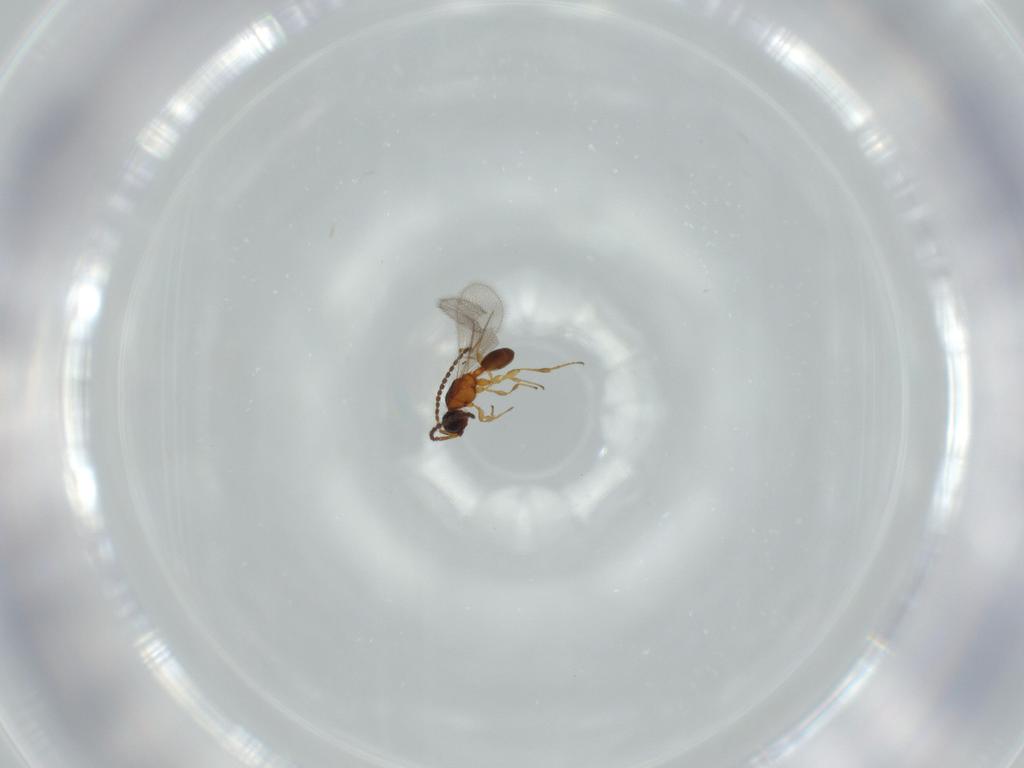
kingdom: Animalia
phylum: Arthropoda
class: Insecta
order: Hymenoptera
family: Diapriidae
